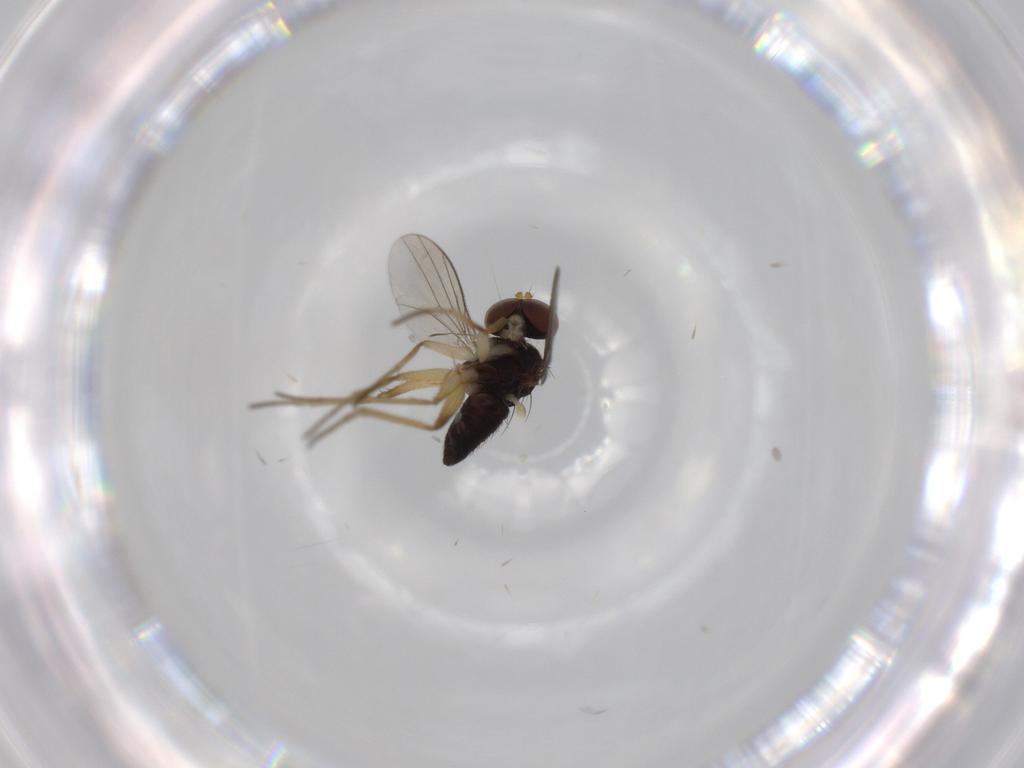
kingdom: Animalia
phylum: Arthropoda
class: Insecta
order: Diptera
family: Dolichopodidae
